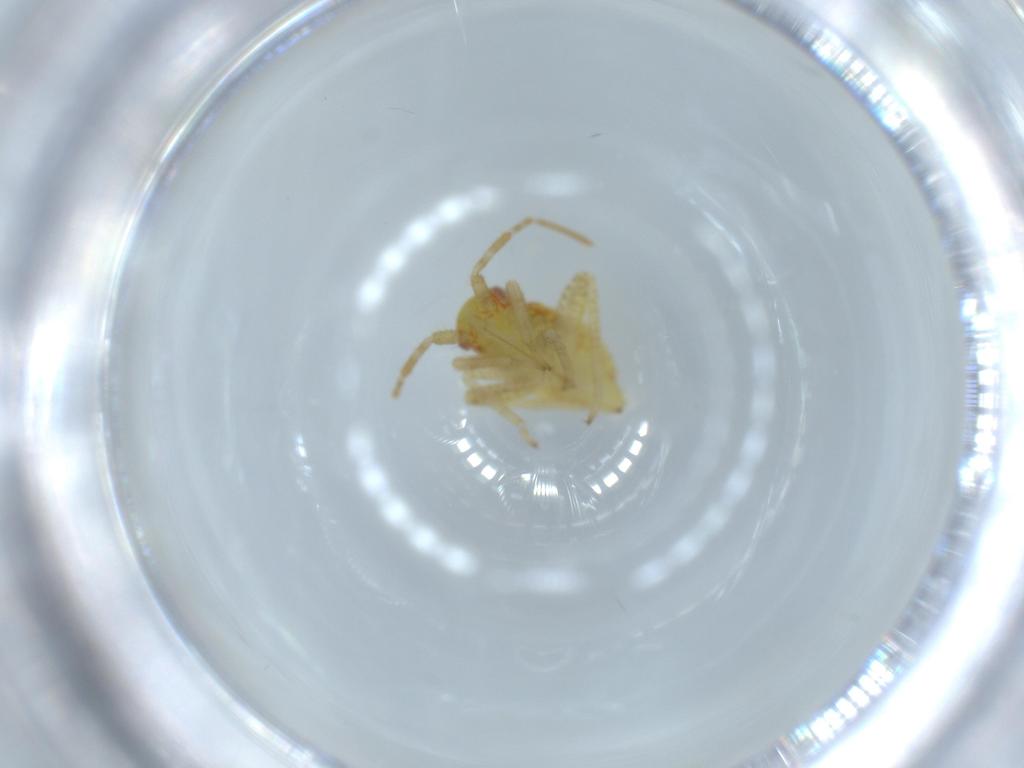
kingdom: Animalia
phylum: Arthropoda
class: Insecta
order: Hemiptera
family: Miridae
